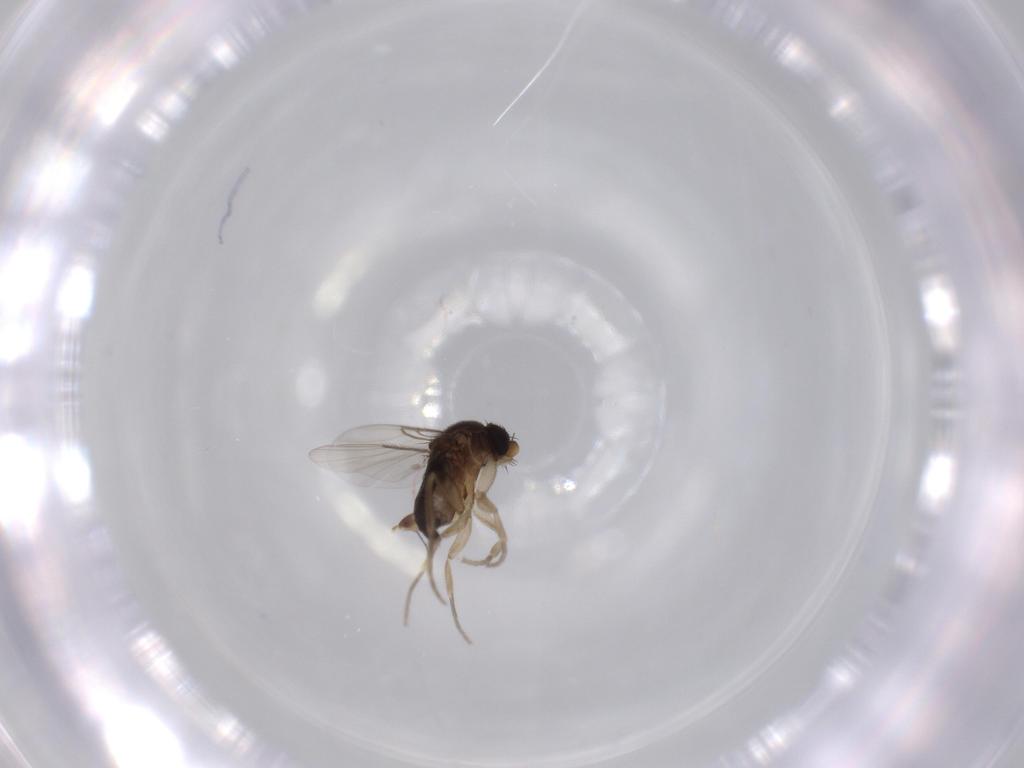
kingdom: Animalia
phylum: Arthropoda
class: Insecta
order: Diptera
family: Phoridae
